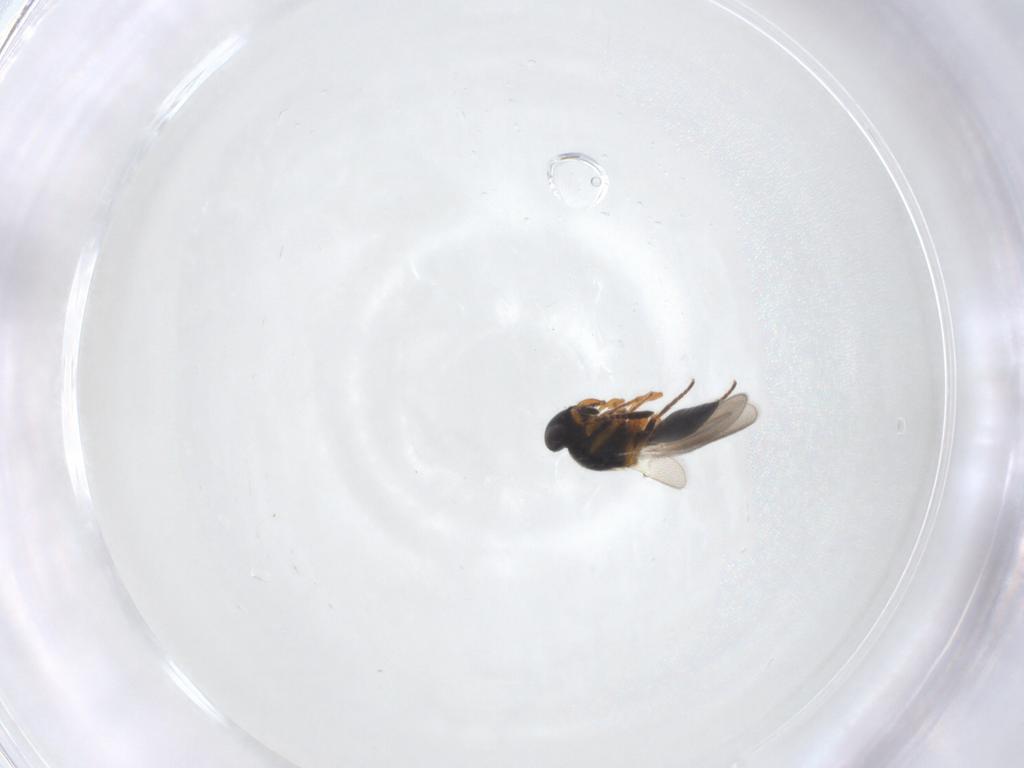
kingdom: Animalia
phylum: Arthropoda
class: Insecta
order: Hymenoptera
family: Platygastridae
